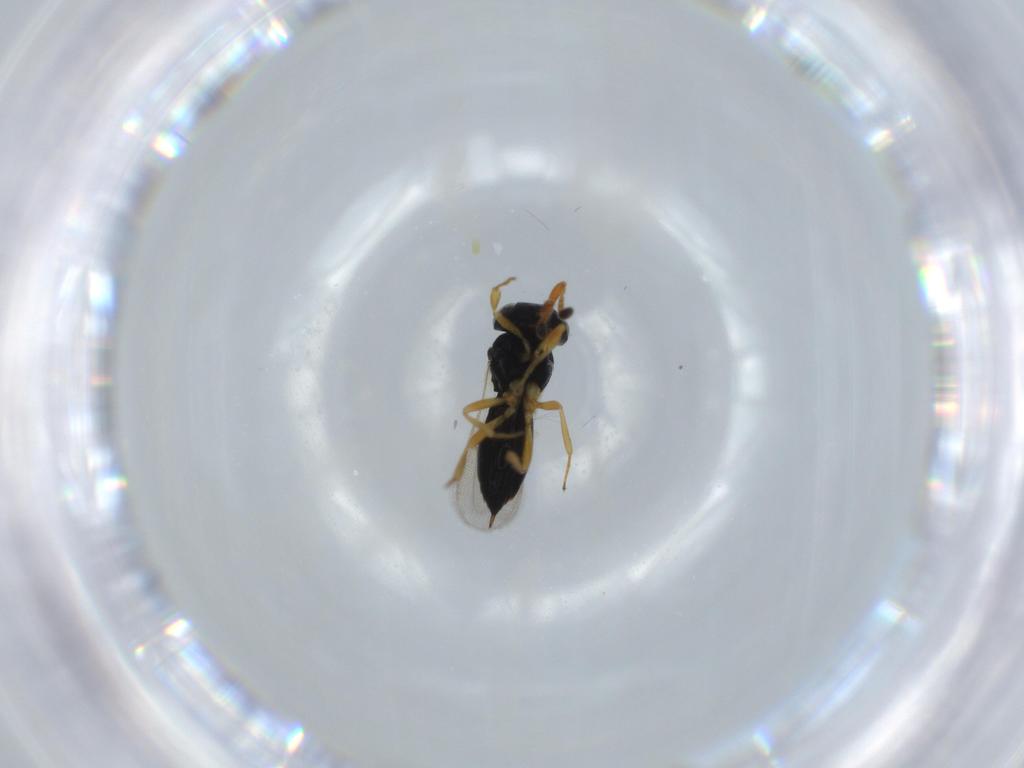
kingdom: Animalia
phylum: Arthropoda
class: Insecta
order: Hymenoptera
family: Scelionidae
